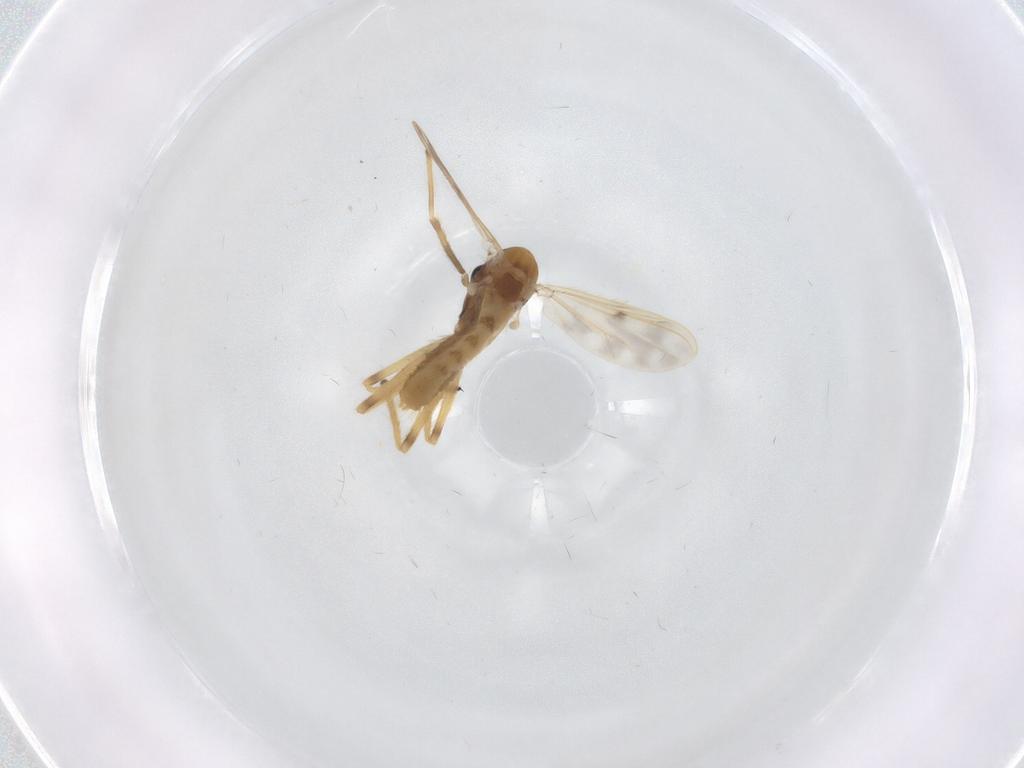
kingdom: Animalia
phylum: Arthropoda
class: Insecta
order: Diptera
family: Chironomidae
